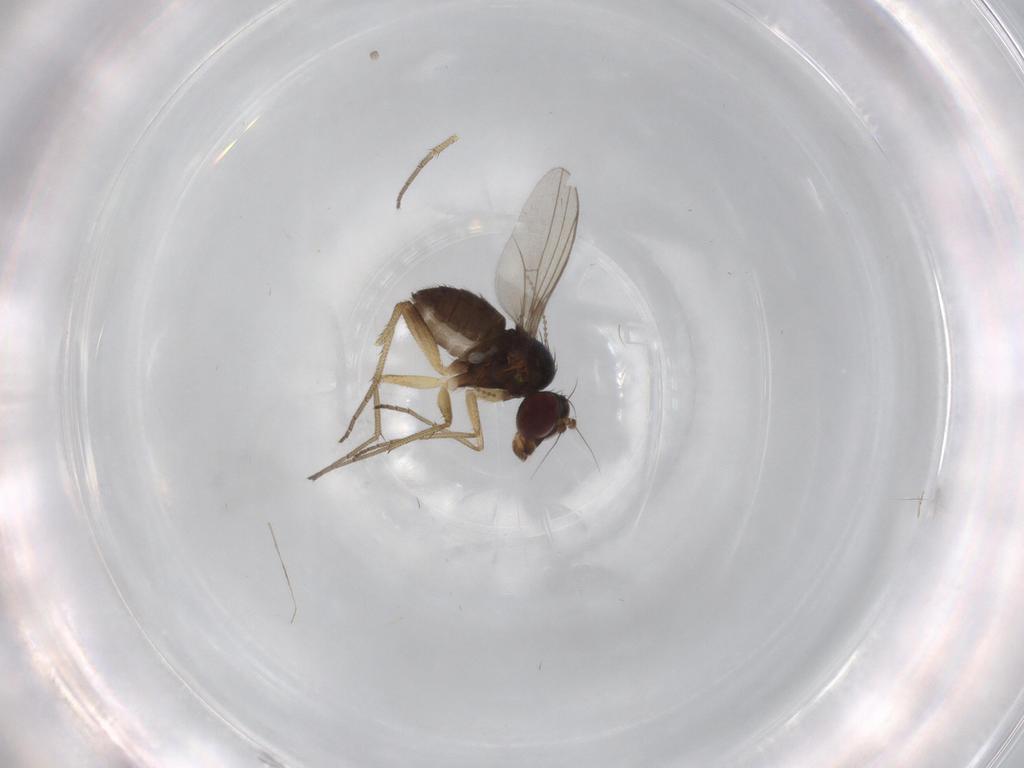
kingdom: Animalia
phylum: Arthropoda
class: Insecta
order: Diptera
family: Dolichopodidae
